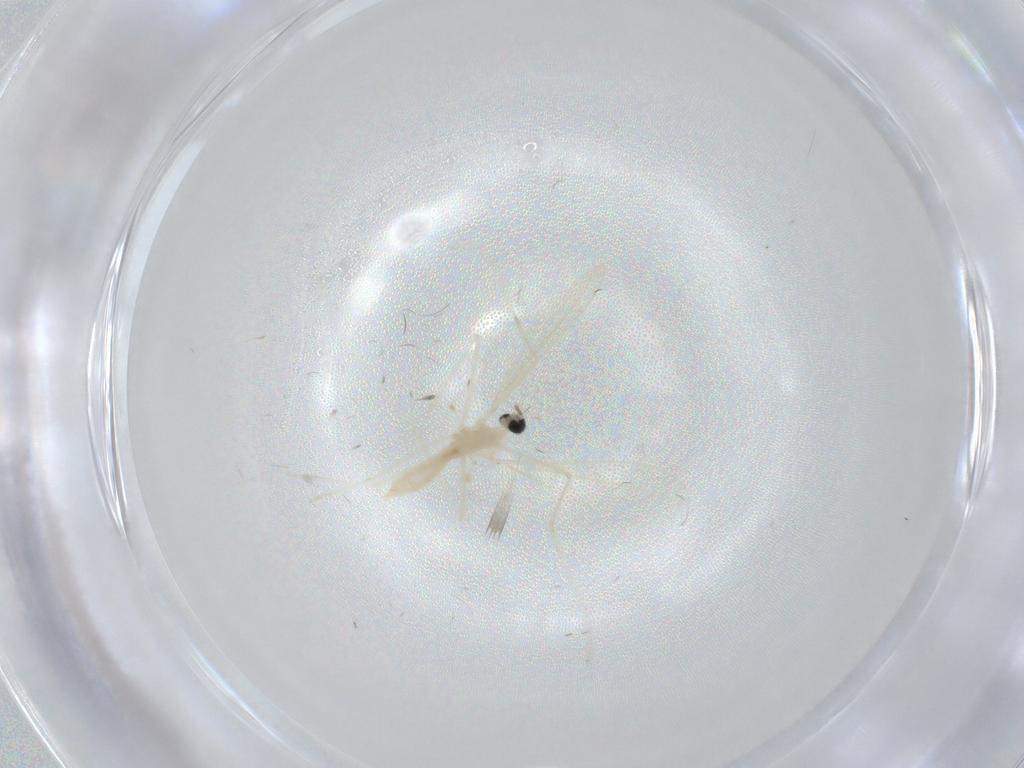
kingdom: Animalia
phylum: Arthropoda
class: Insecta
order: Diptera
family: Cecidomyiidae
